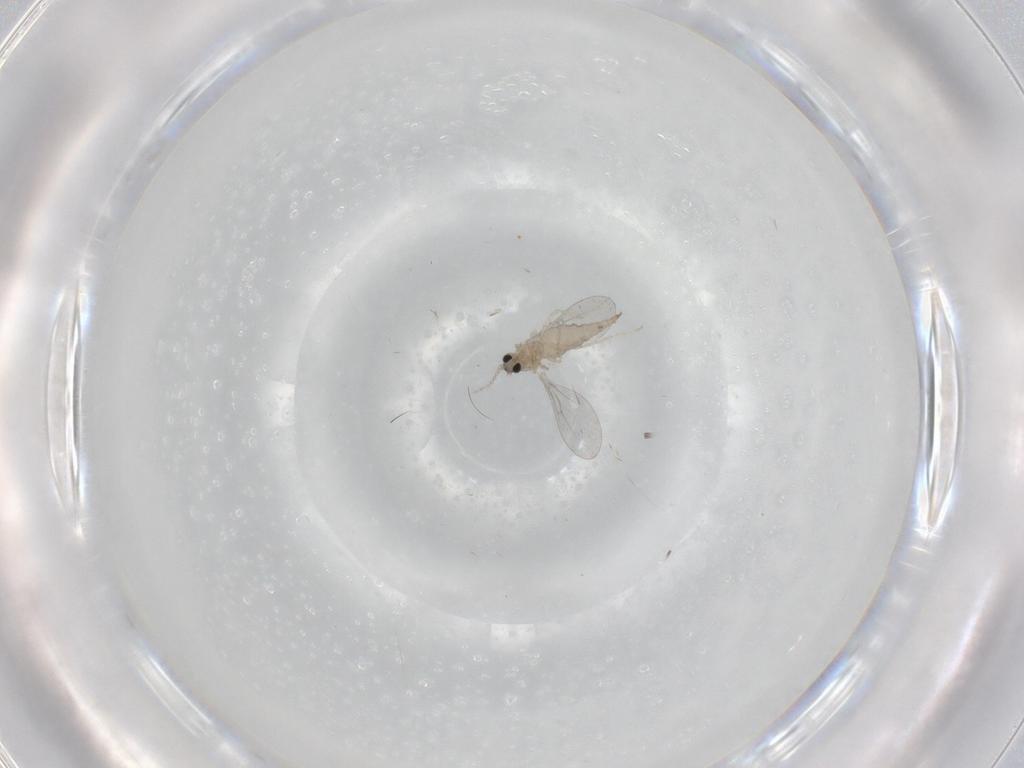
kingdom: Animalia
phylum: Arthropoda
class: Insecta
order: Diptera
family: Cecidomyiidae
